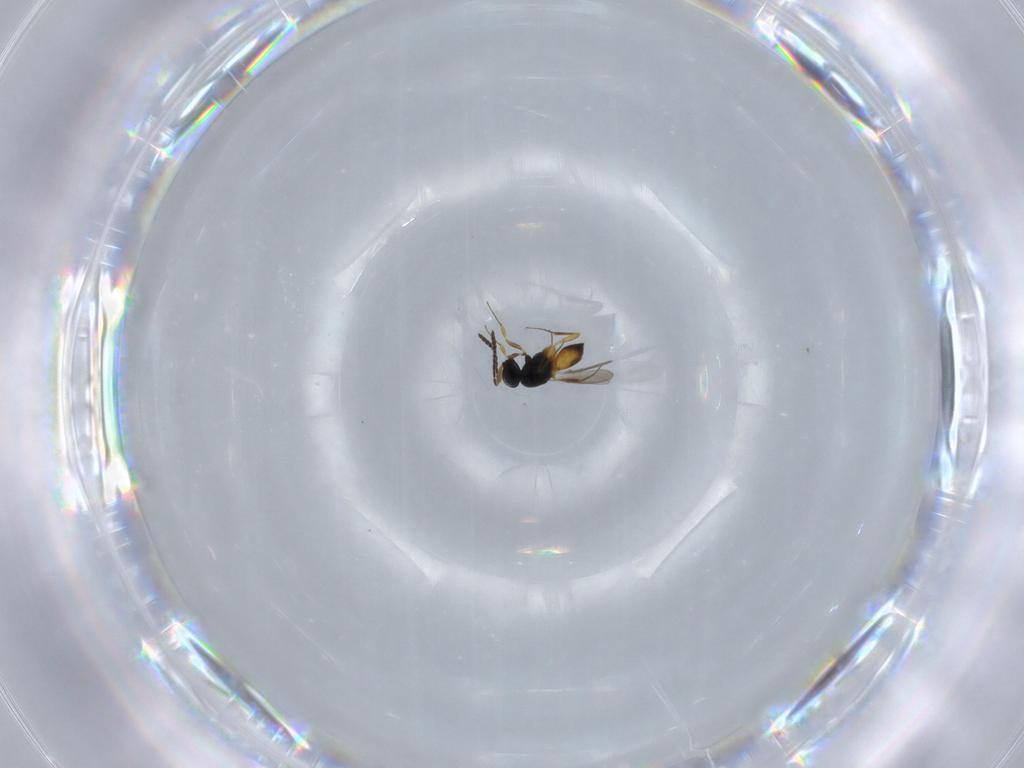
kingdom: Animalia
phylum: Arthropoda
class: Insecta
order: Hymenoptera
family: Scelionidae
